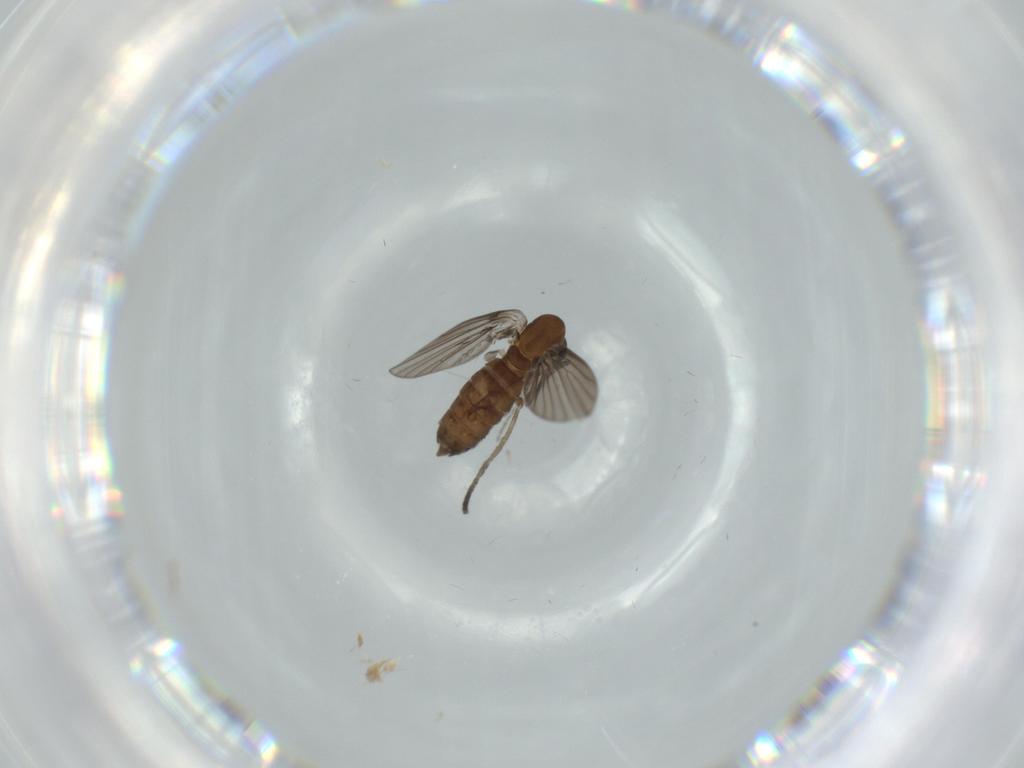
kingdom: Animalia
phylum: Arthropoda
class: Insecta
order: Diptera
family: Psychodidae
